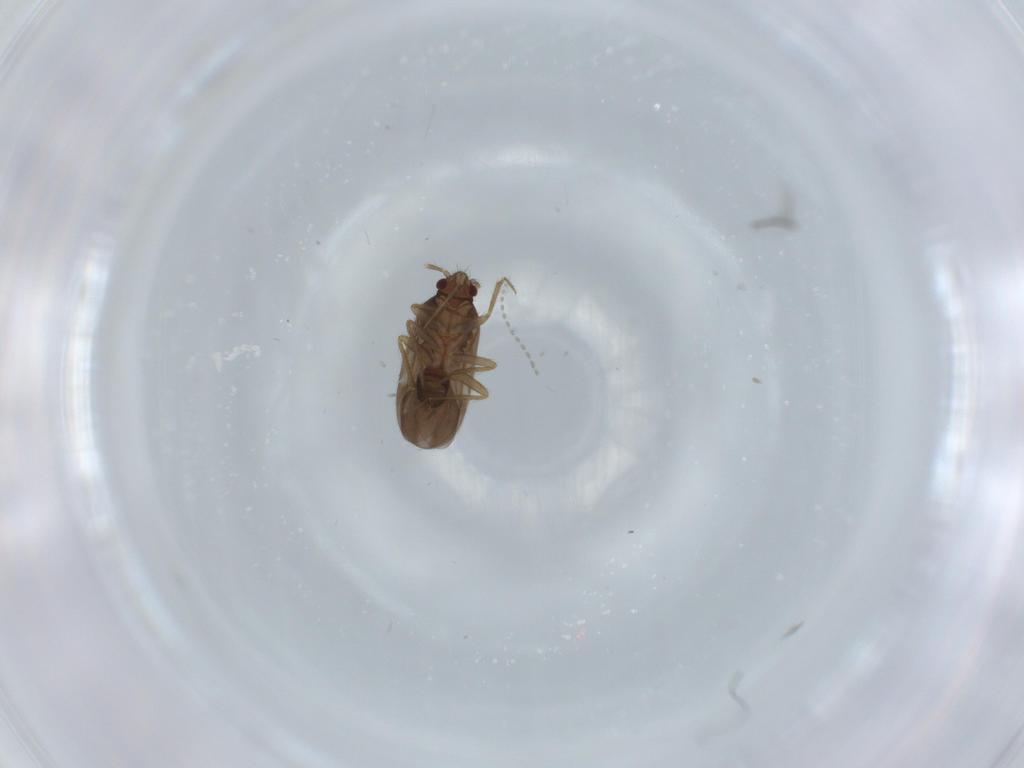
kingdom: Animalia
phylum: Arthropoda
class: Insecta
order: Hemiptera
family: Ceratocombidae
